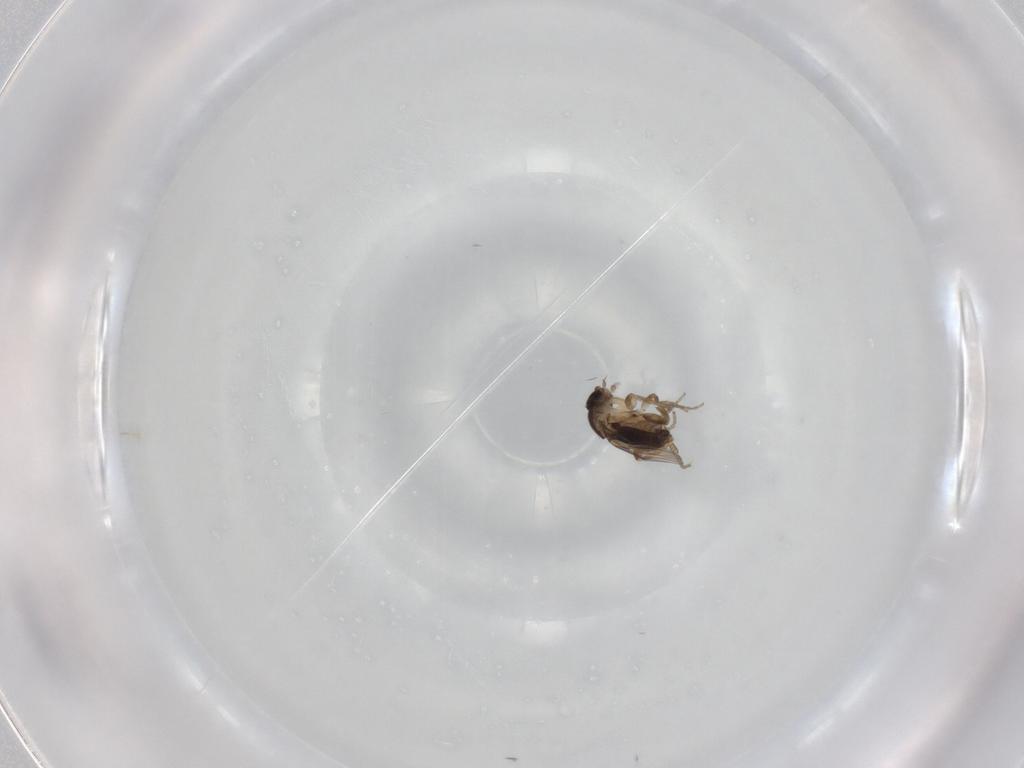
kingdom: Animalia
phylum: Arthropoda
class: Insecta
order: Diptera
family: Phoridae
